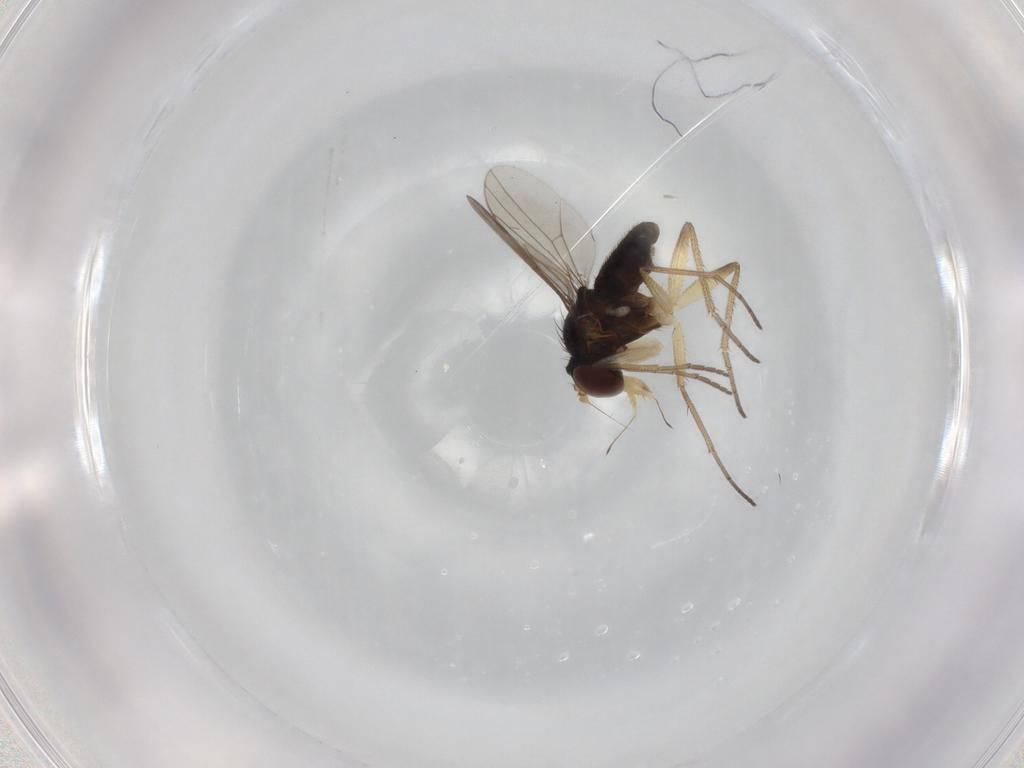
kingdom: Animalia
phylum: Arthropoda
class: Insecta
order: Diptera
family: Dolichopodidae
